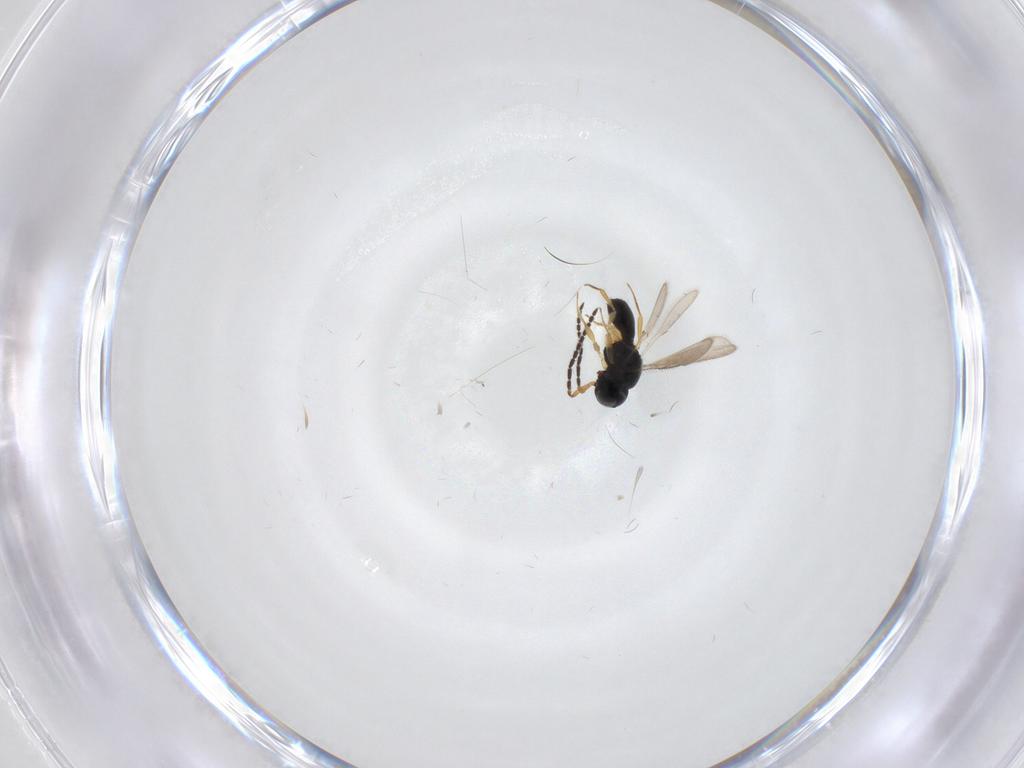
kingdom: Animalia
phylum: Arthropoda
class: Insecta
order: Hymenoptera
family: Scelionidae
